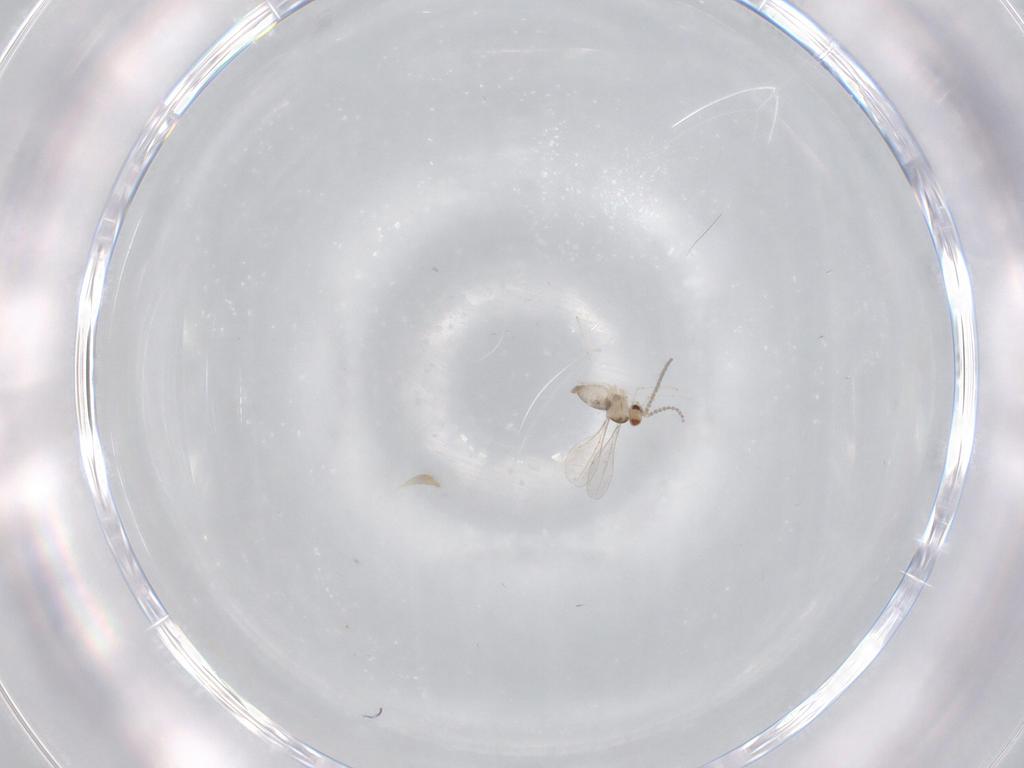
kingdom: Animalia
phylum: Arthropoda
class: Insecta
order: Diptera
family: Cecidomyiidae
